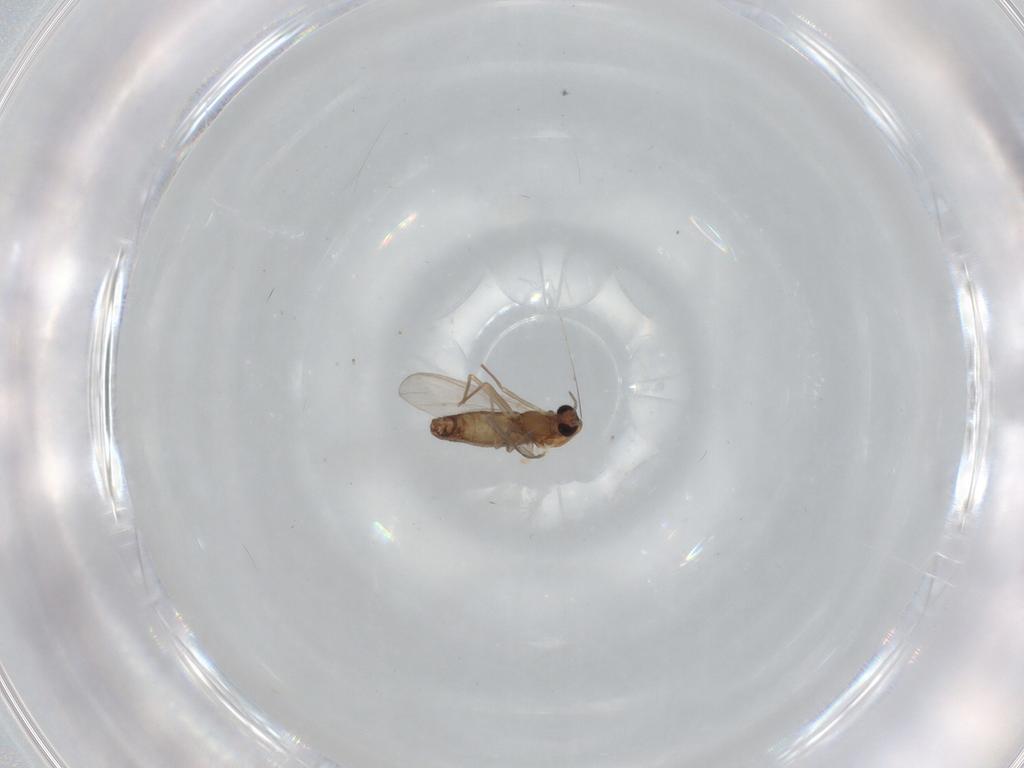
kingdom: Animalia
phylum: Arthropoda
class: Insecta
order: Diptera
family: Chironomidae
